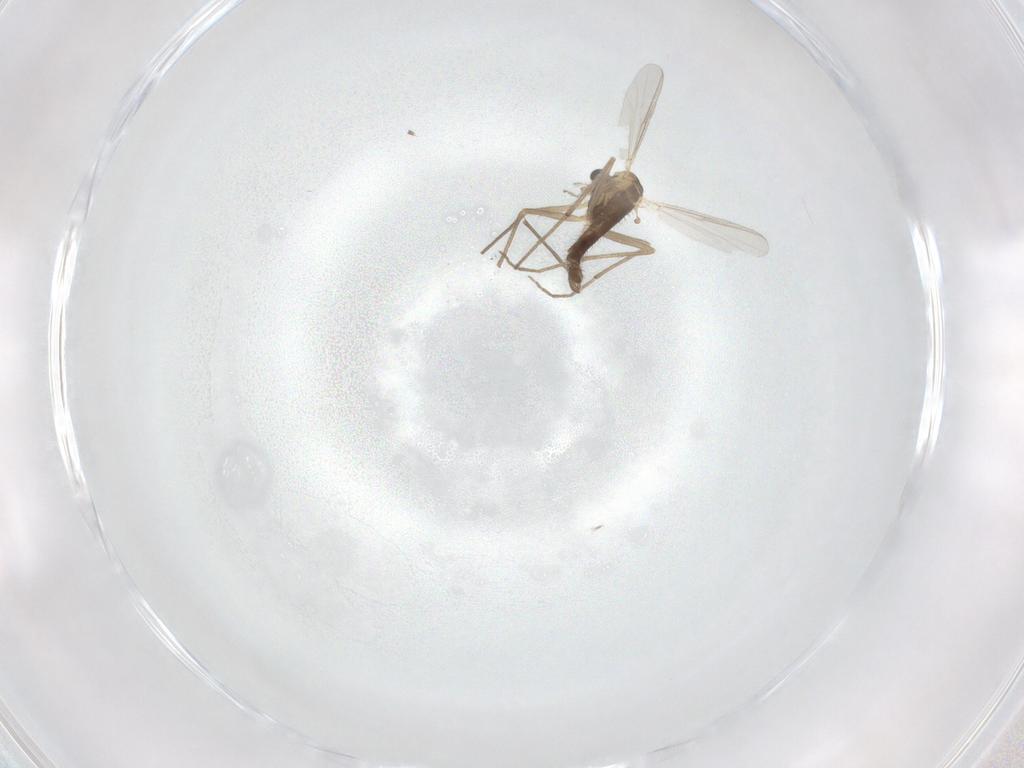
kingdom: Animalia
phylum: Arthropoda
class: Insecta
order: Diptera
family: Chironomidae
